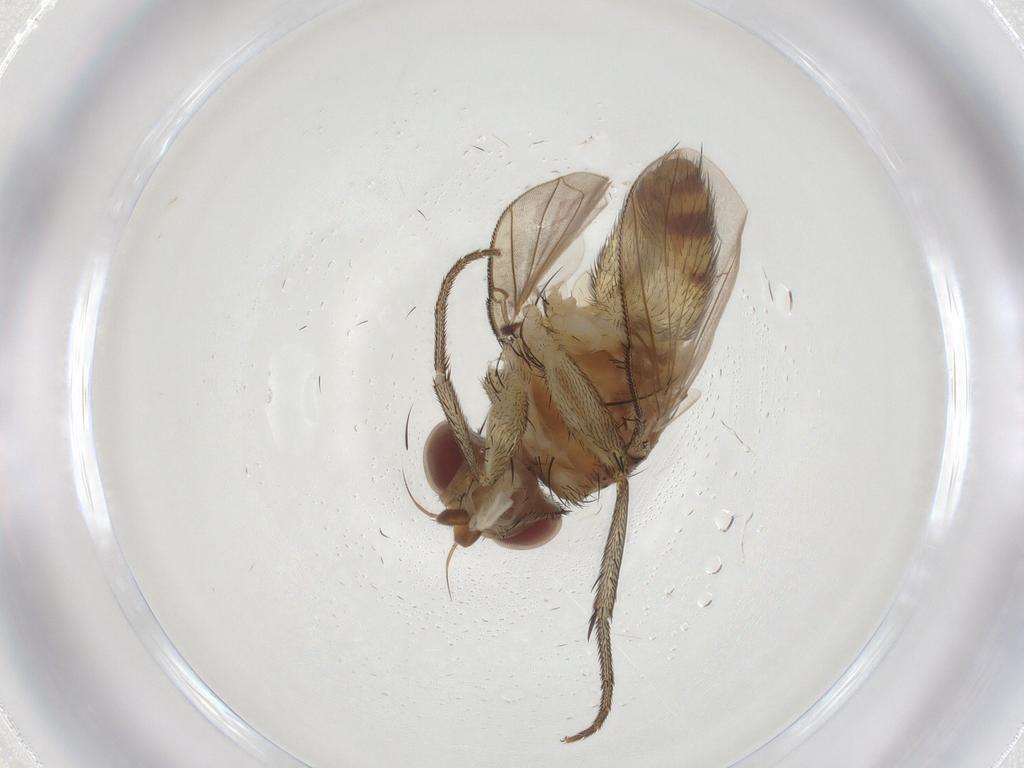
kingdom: Animalia
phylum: Arthropoda
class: Insecta
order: Diptera
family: Tachinidae
